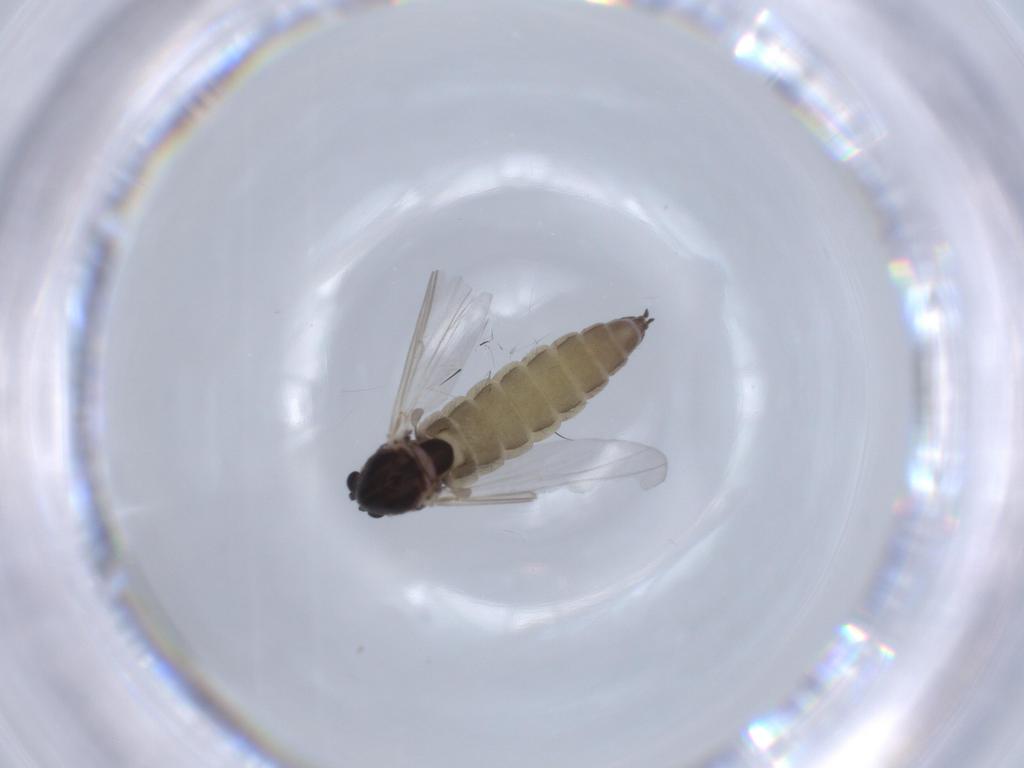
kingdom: Animalia
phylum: Arthropoda
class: Insecta
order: Diptera
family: Chironomidae
